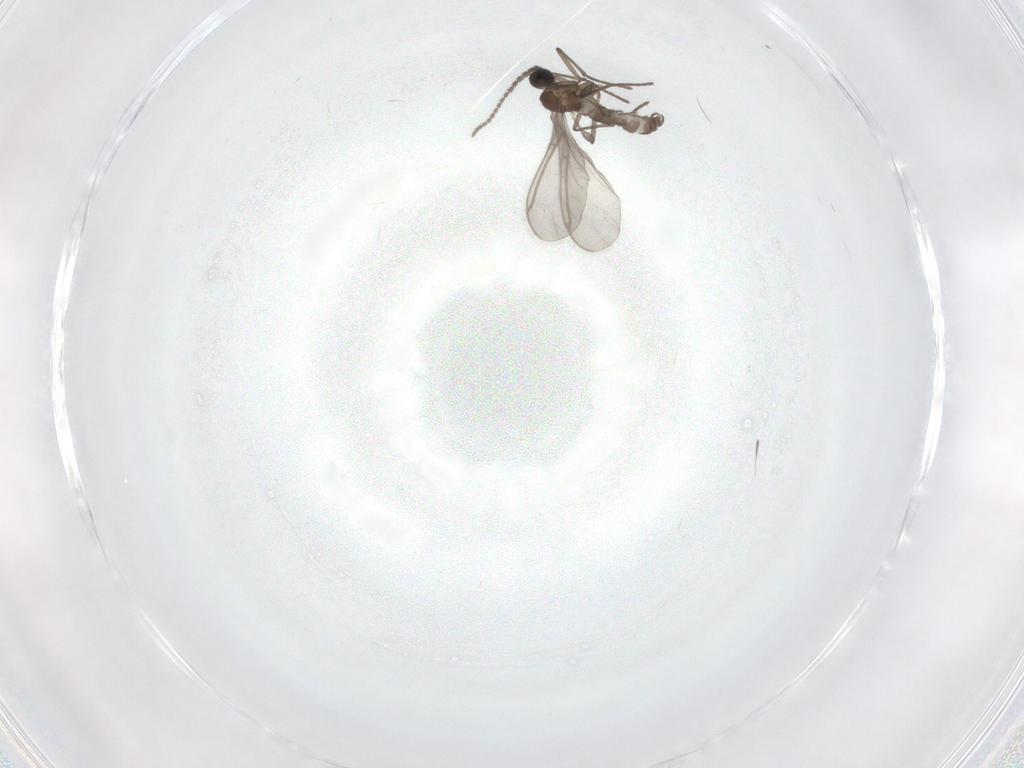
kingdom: Animalia
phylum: Arthropoda
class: Insecta
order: Diptera
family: Sciaridae
